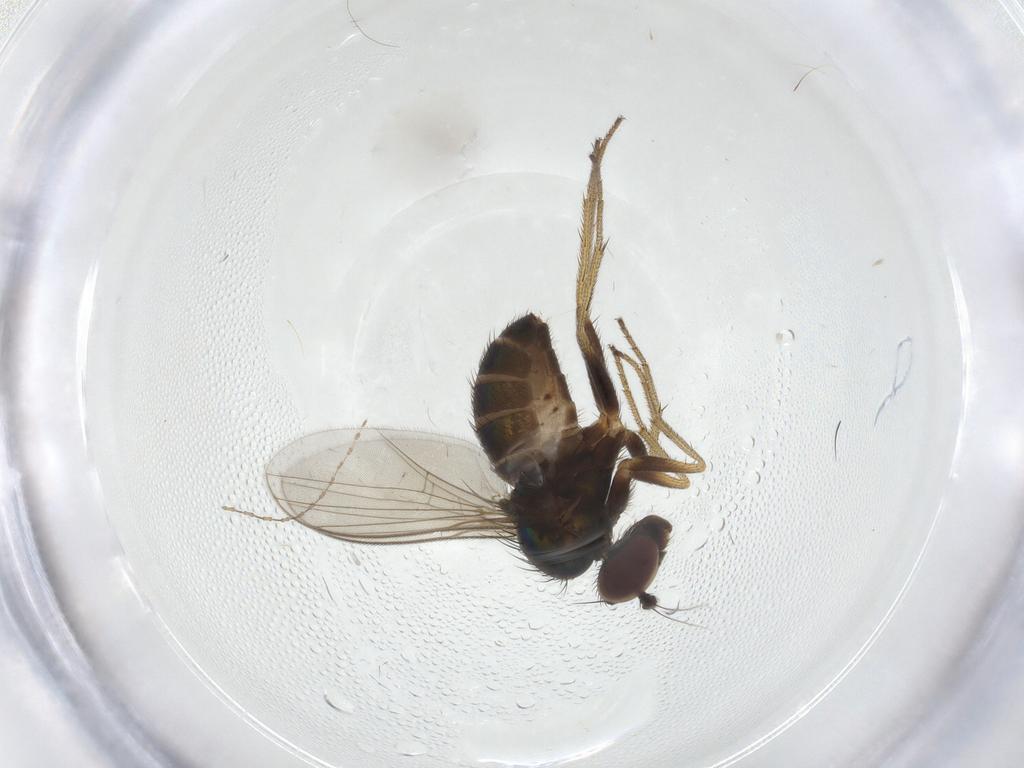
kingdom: Animalia
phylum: Arthropoda
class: Insecta
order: Diptera
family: Dolichopodidae
